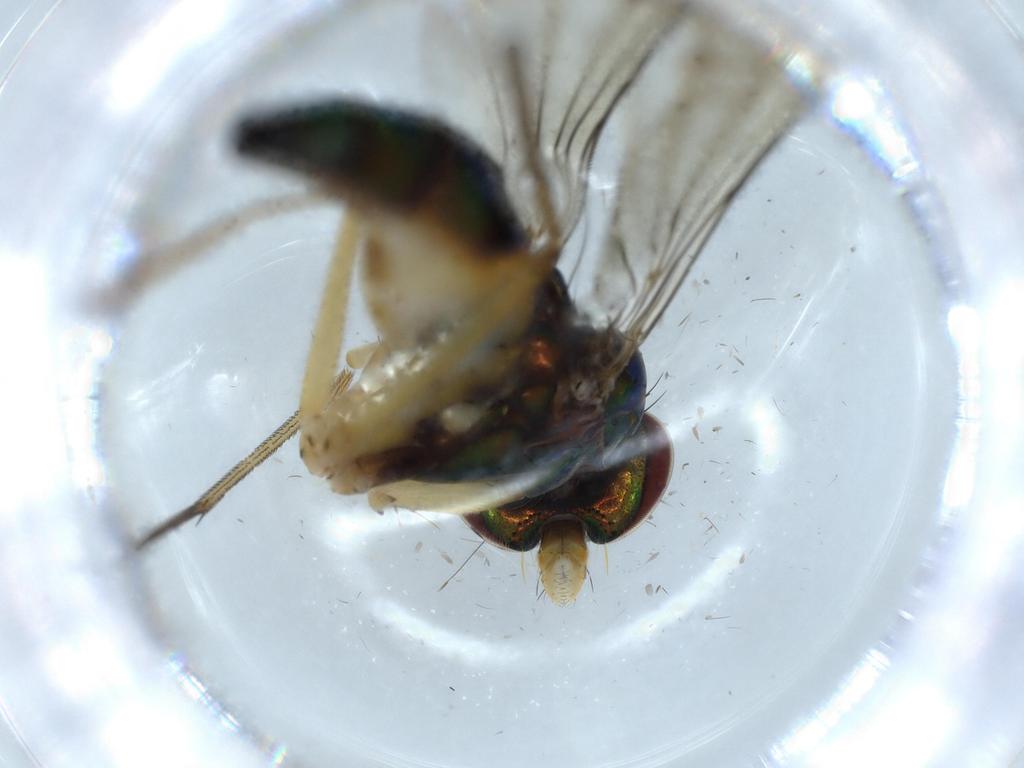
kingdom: Animalia
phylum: Arthropoda
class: Insecta
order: Diptera
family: Dolichopodidae
